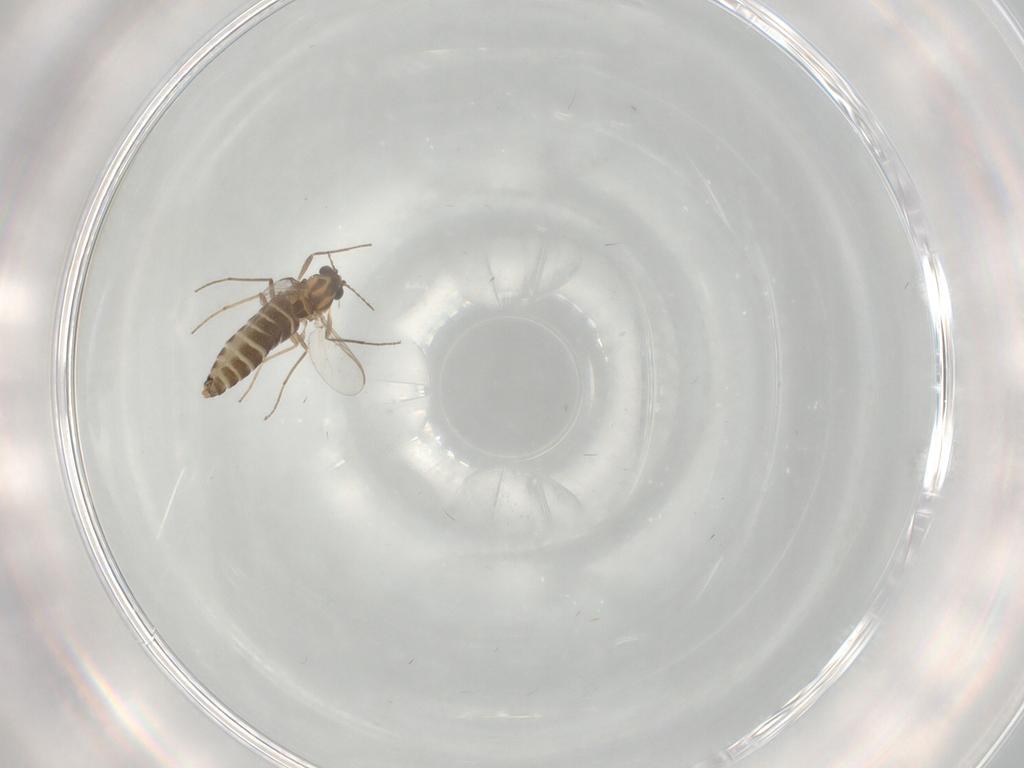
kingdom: Animalia
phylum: Arthropoda
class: Insecta
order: Diptera
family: Chironomidae
